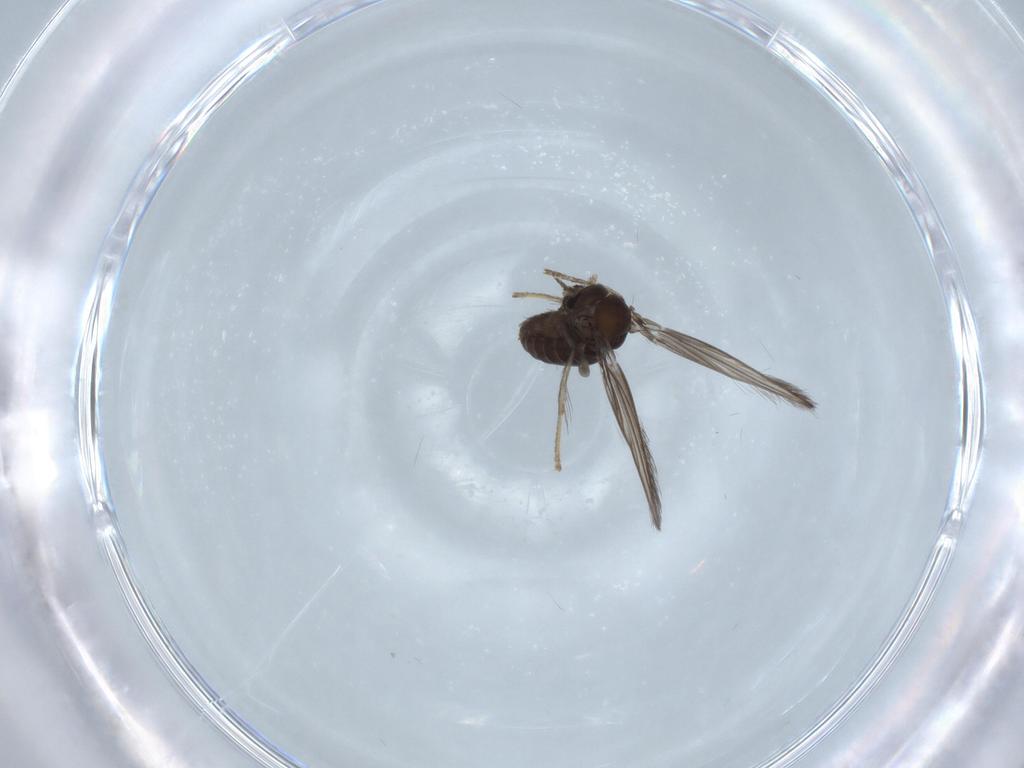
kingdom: Animalia
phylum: Arthropoda
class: Insecta
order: Diptera
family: Psychodidae
